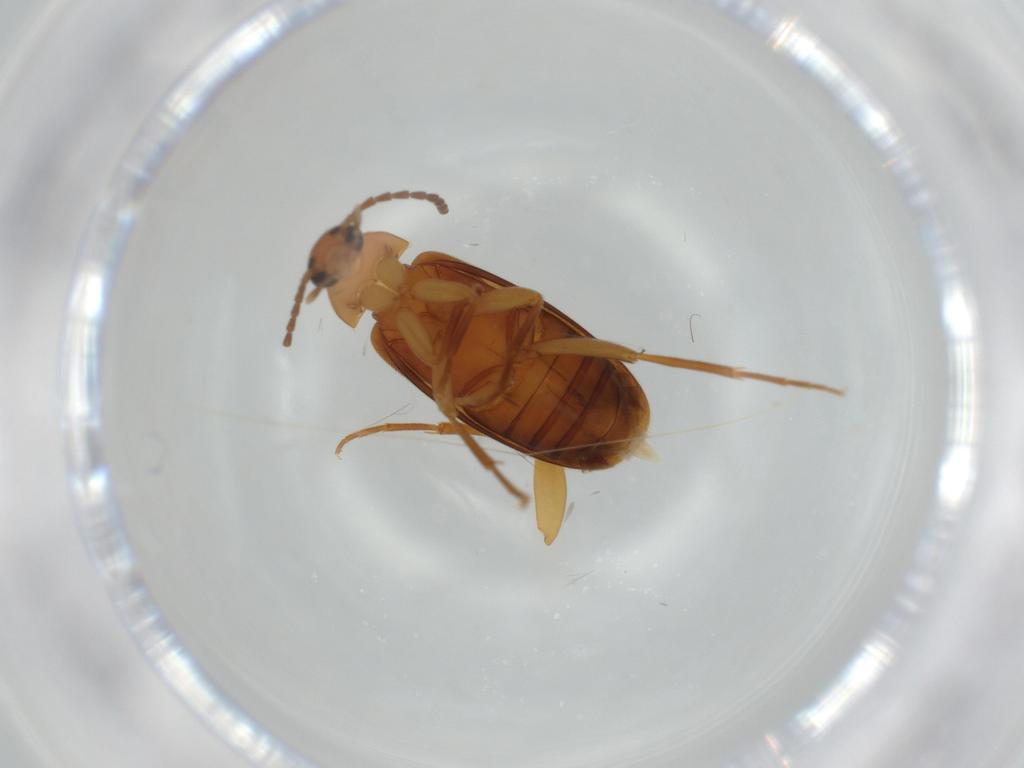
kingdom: Animalia
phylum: Arthropoda
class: Insecta
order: Coleoptera
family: Scraptiidae
